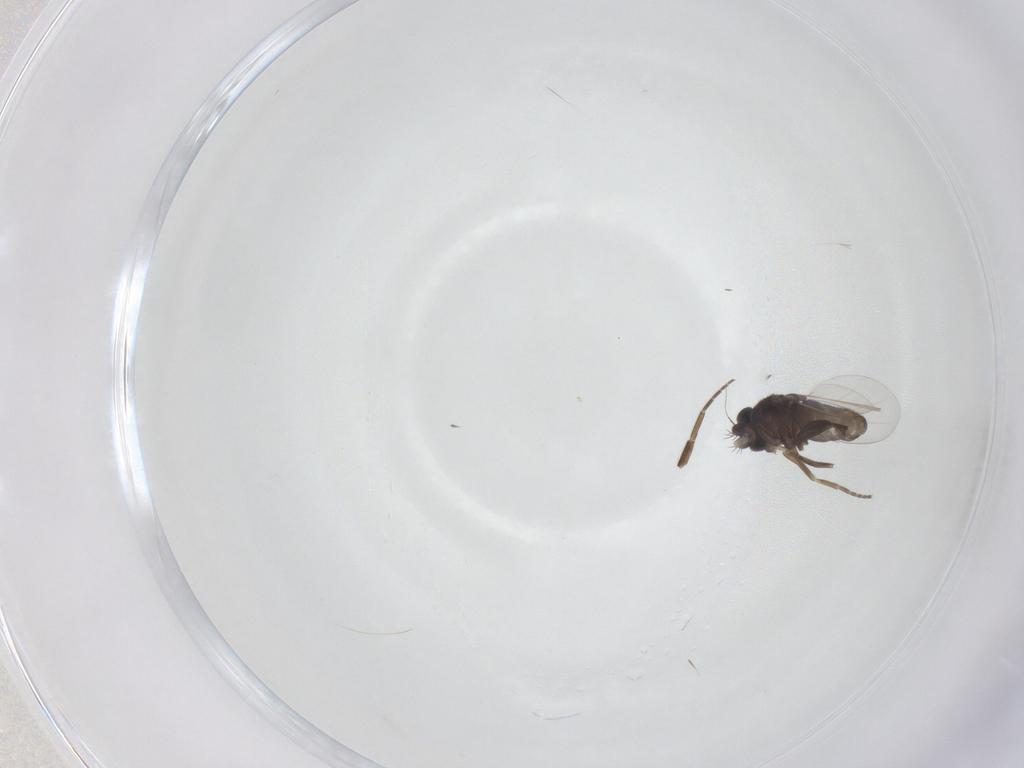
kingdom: Animalia
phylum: Arthropoda
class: Insecta
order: Diptera
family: Phoridae
